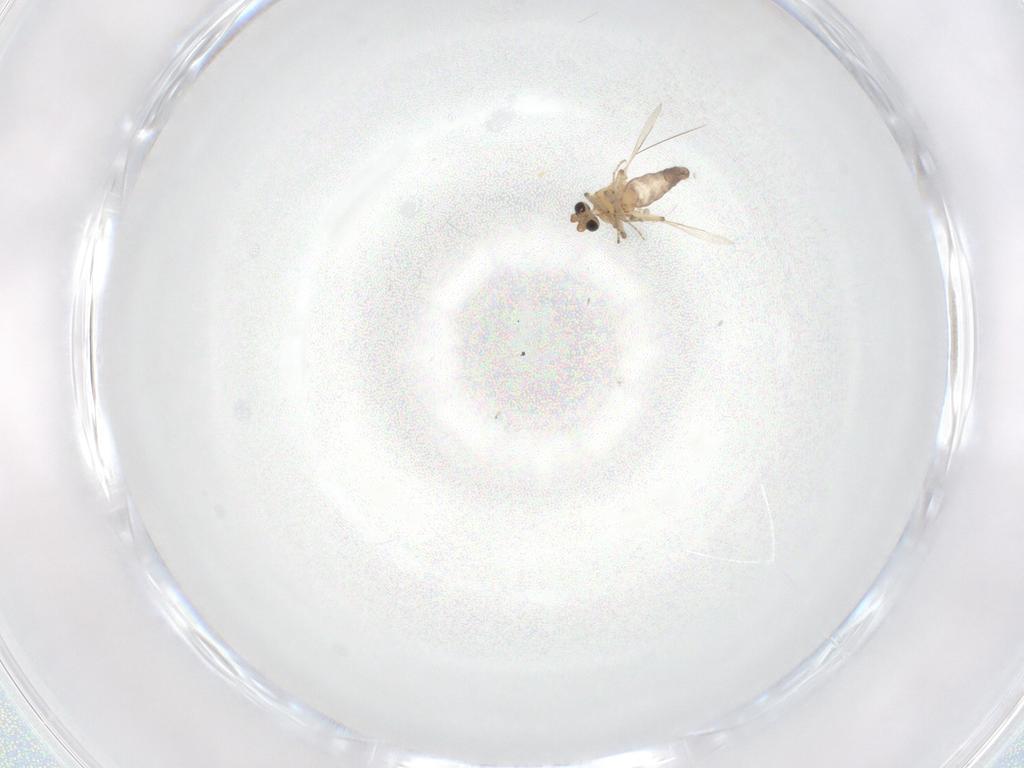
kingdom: Animalia
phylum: Arthropoda
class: Insecta
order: Diptera
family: Ceratopogonidae
